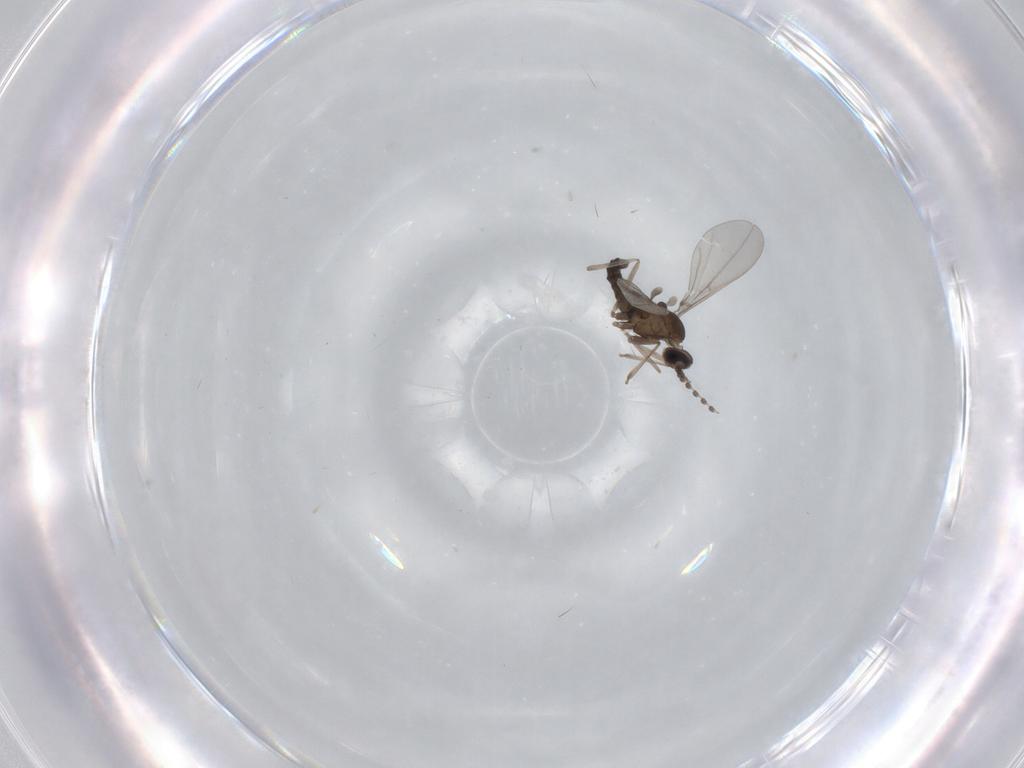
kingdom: Animalia
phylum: Arthropoda
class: Insecta
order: Diptera
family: Cecidomyiidae
